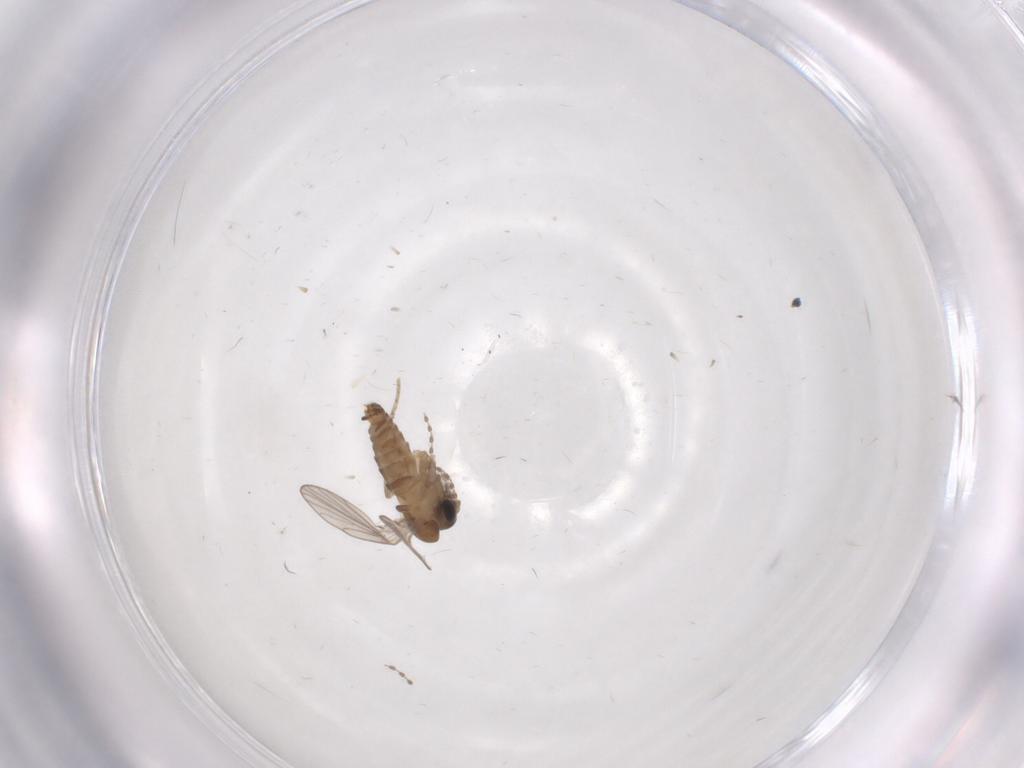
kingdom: Animalia
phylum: Arthropoda
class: Insecta
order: Diptera
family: Psychodidae
